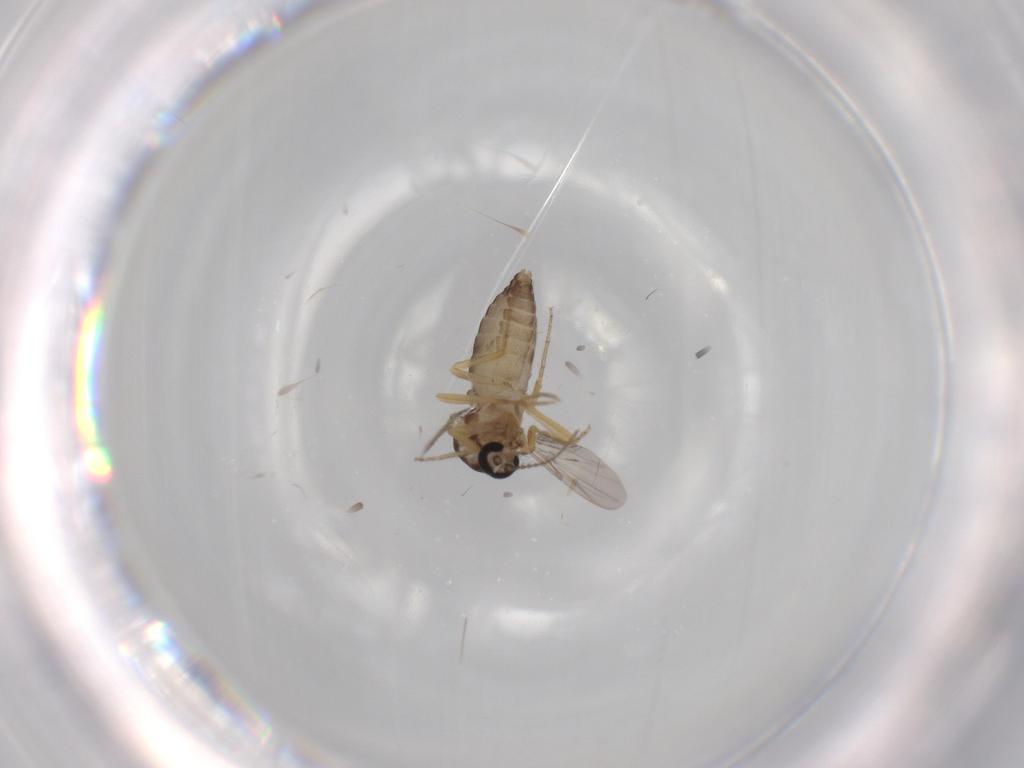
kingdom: Animalia
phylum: Arthropoda
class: Insecta
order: Diptera
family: Ceratopogonidae
